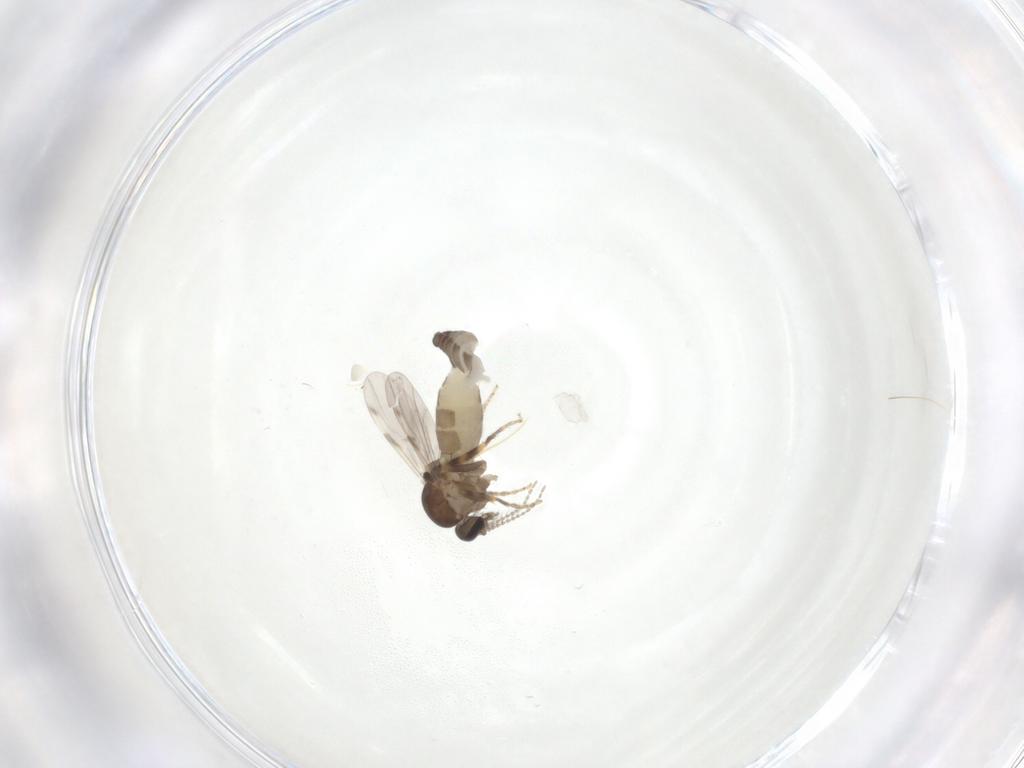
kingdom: Animalia
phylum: Arthropoda
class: Insecta
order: Diptera
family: Ceratopogonidae
